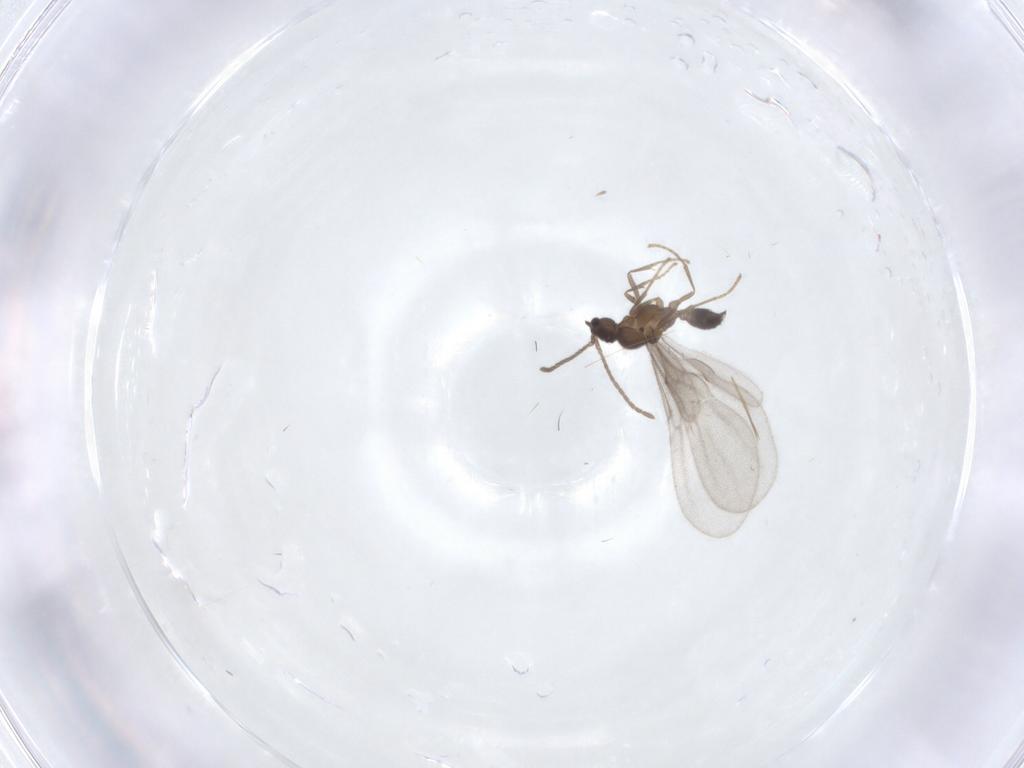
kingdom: Animalia
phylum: Arthropoda
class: Insecta
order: Hymenoptera
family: Formicidae
